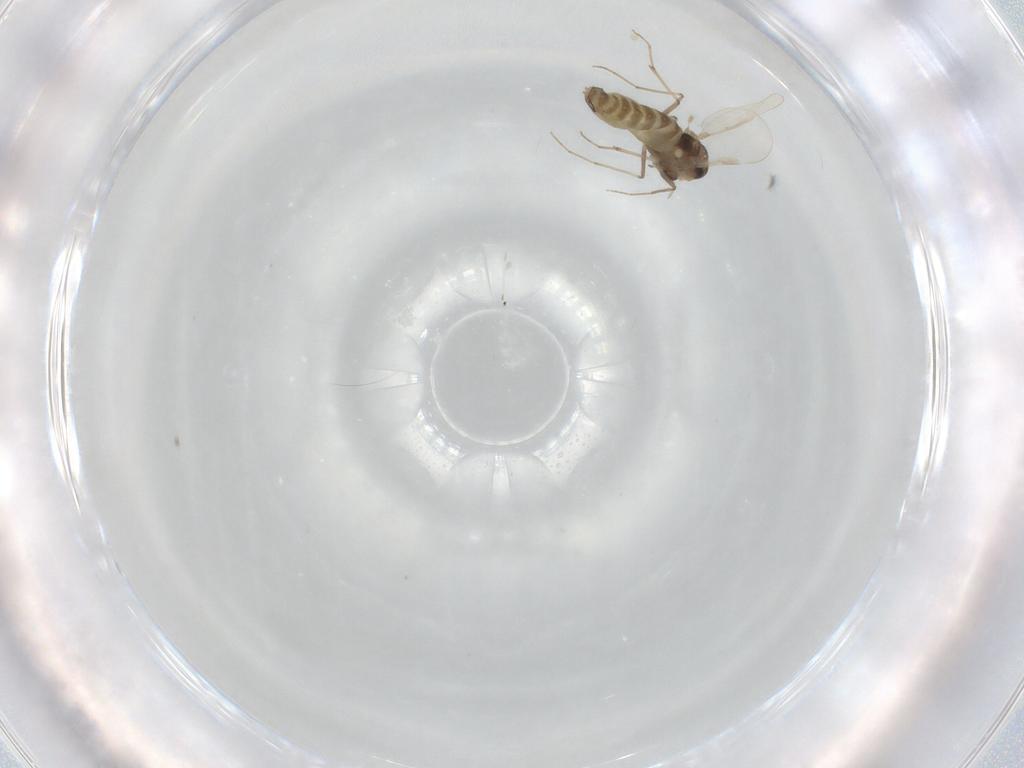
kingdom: Animalia
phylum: Arthropoda
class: Insecta
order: Diptera
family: Chironomidae
